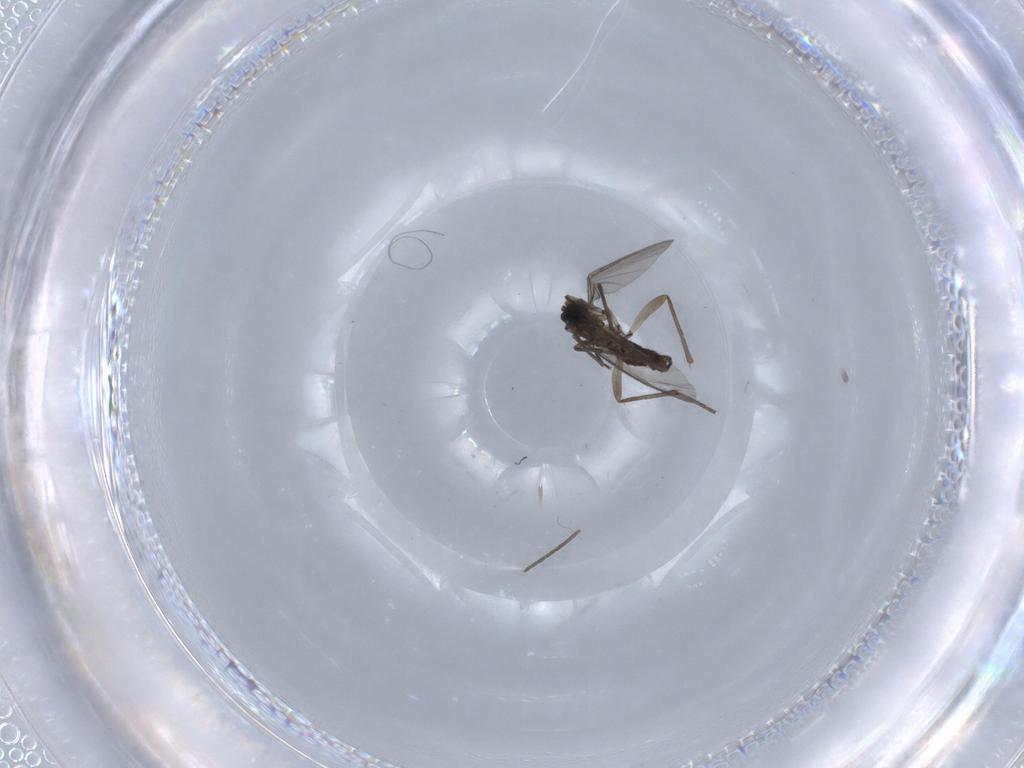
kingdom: Animalia
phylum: Arthropoda
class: Insecta
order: Diptera
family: Sciaridae
